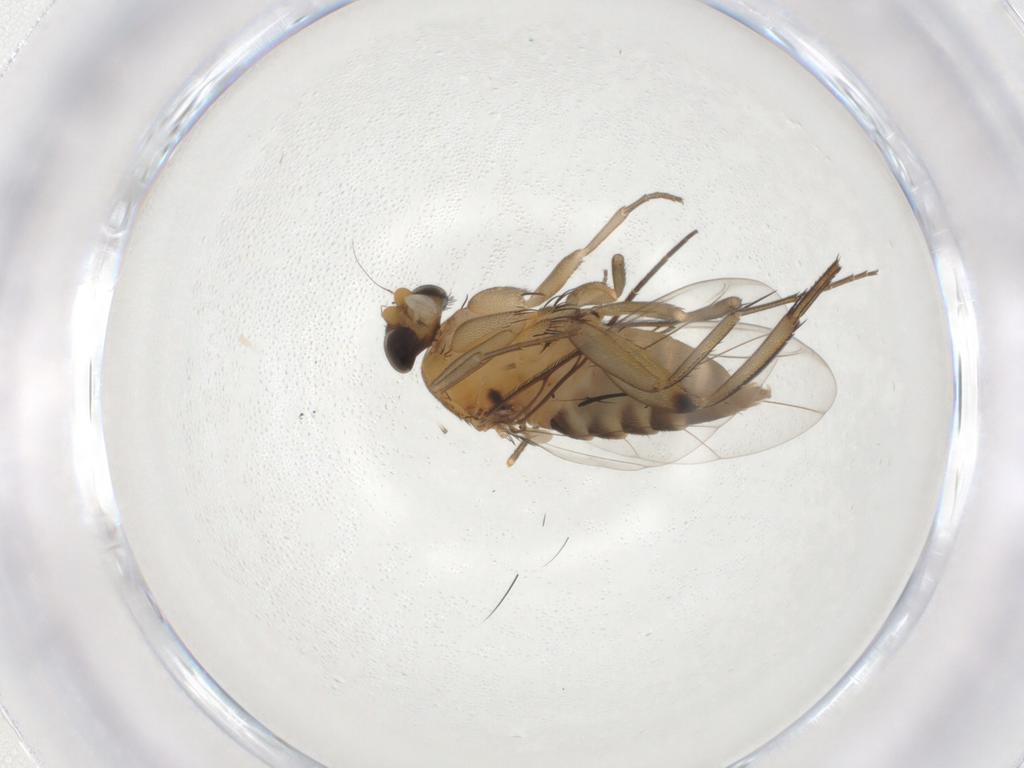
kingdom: Animalia
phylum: Arthropoda
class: Insecta
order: Diptera
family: Phoridae
